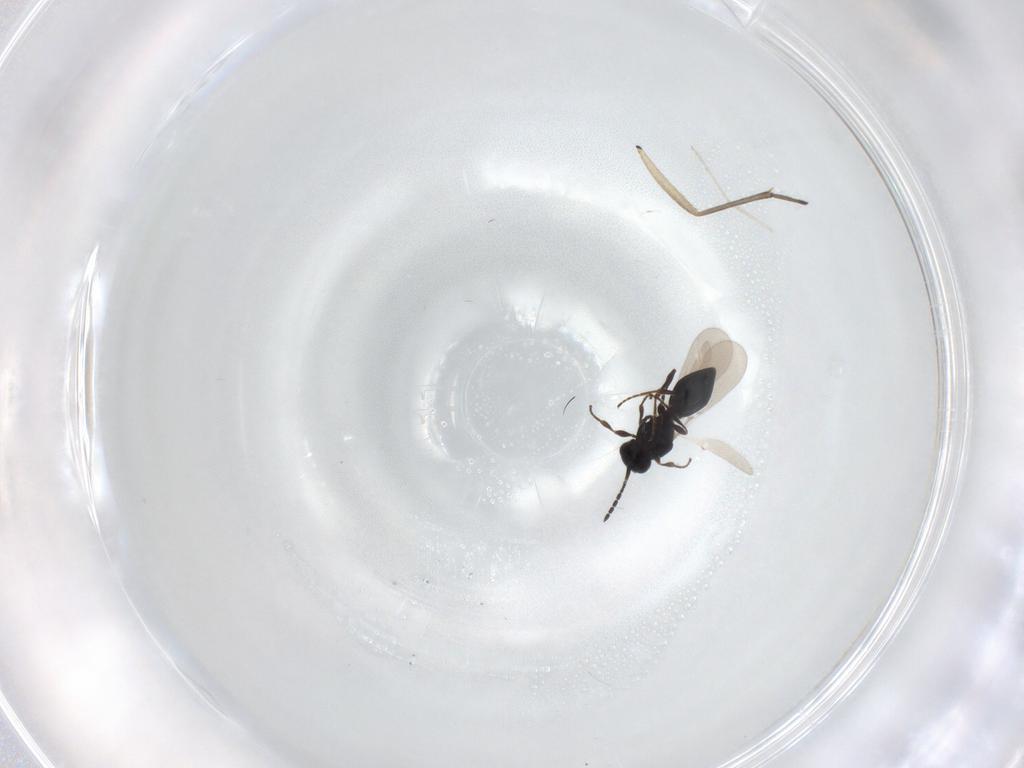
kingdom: Animalia
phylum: Arthropoda
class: Insecta
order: Hymenoptera
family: Platygastridae
